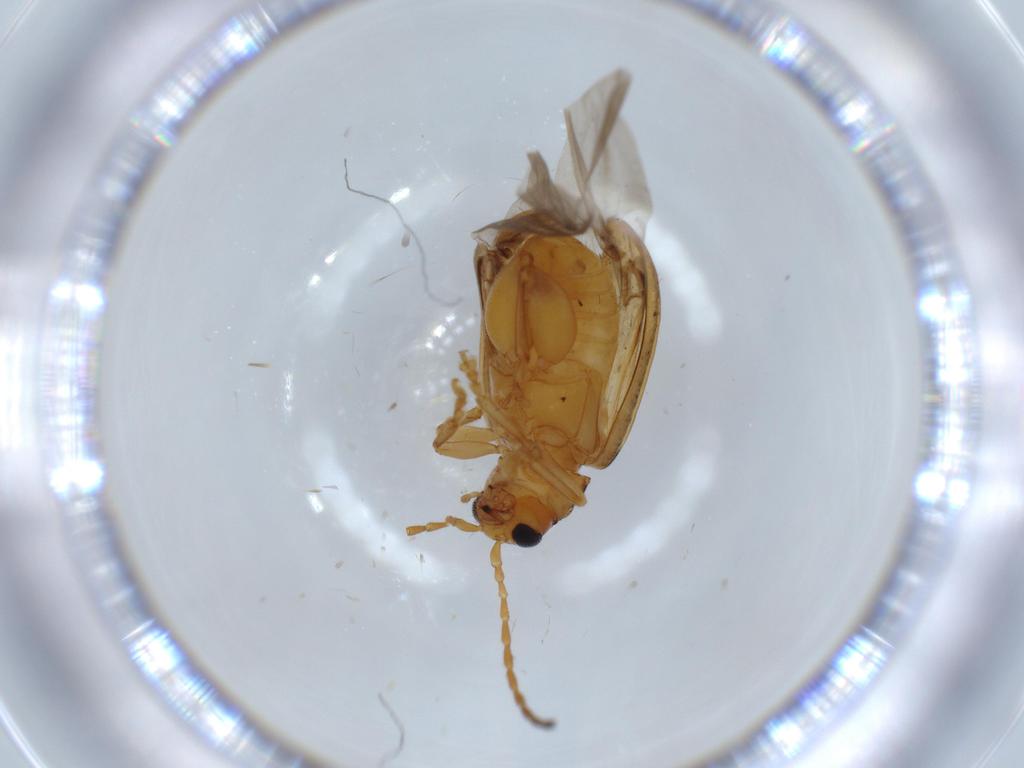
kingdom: Animalia
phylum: Arthropoda
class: Insecta
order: Coleoptera
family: Chrysomelidae
